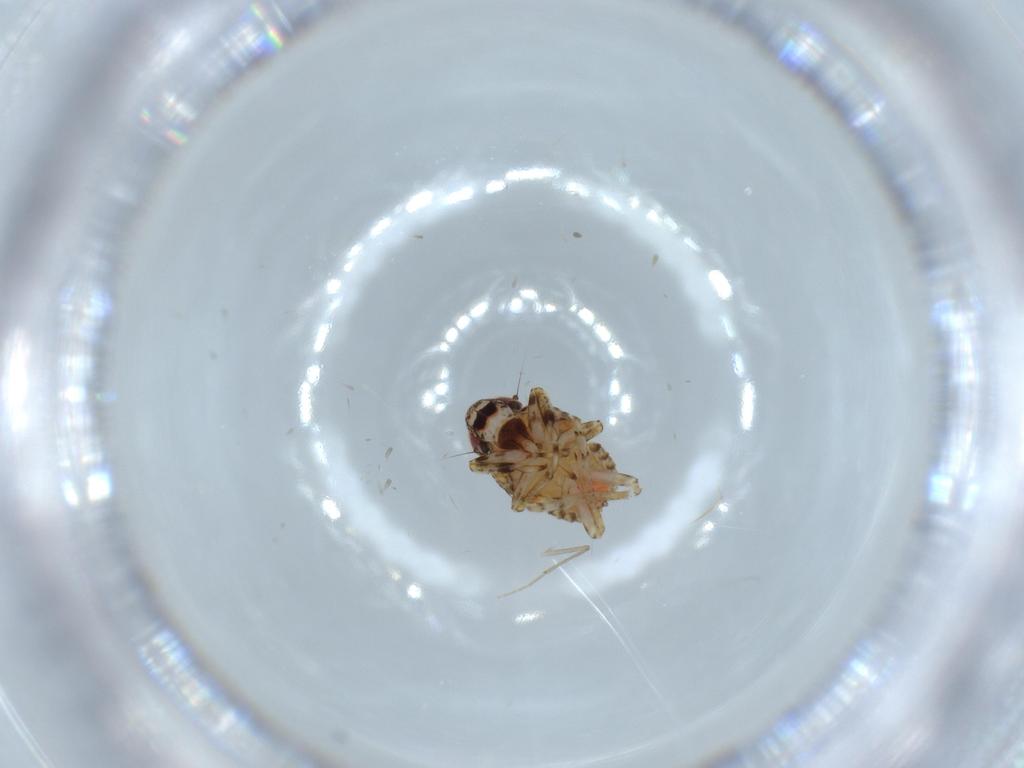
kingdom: Animalia
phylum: Arthropoda
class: Insecta
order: Hemiptera
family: Issidae
